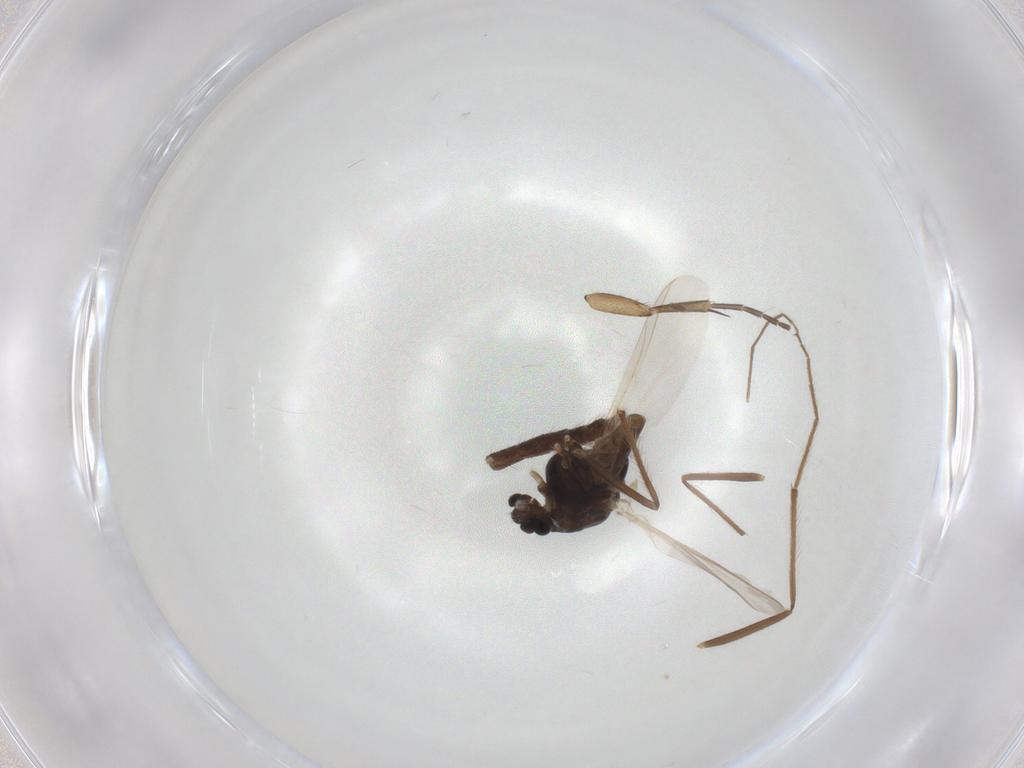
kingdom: Animalia
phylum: Arthropoda
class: Insecta
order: Diptera
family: Chironomidae
